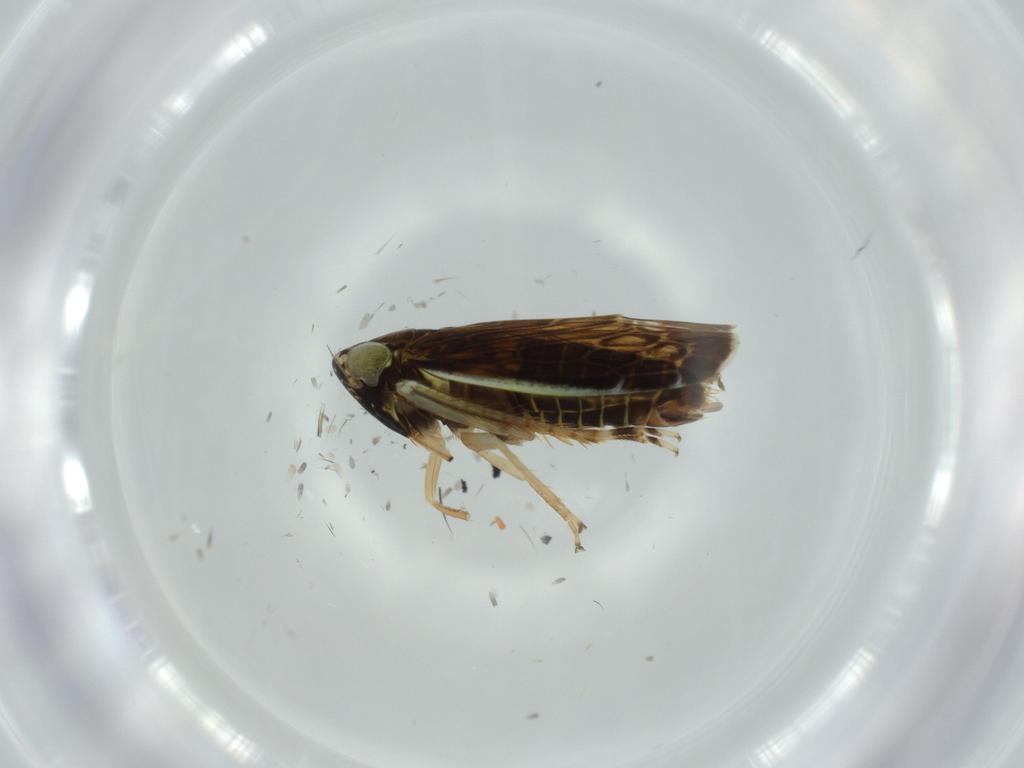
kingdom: Animalia
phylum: Arthropoda
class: Insecta
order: Hemiptera
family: Cicadellidae
